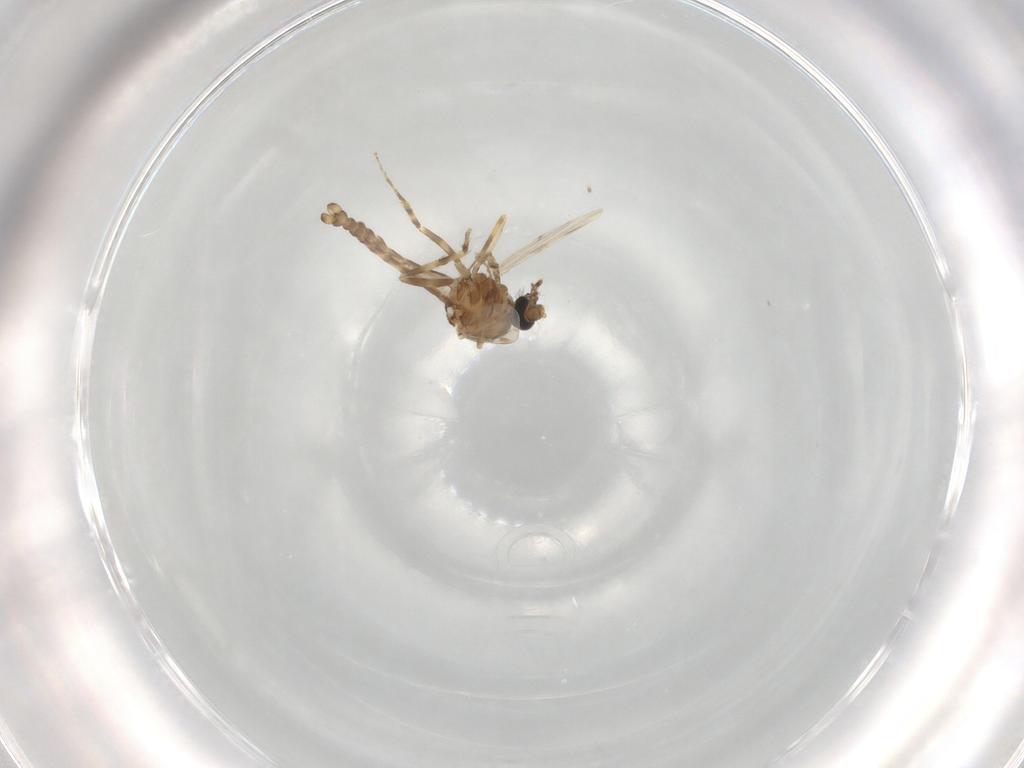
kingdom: Animalia
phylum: Arthropoda
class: Insecta
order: Diptera
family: Ceratopogonidae
